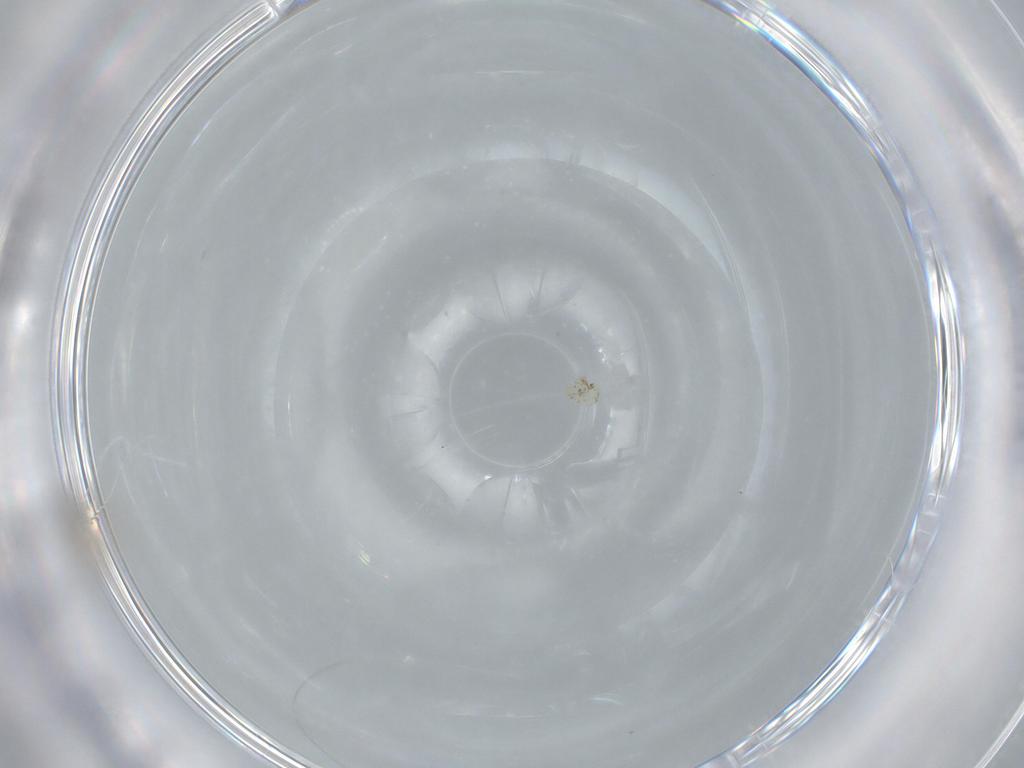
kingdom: Animalia
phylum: Arthropoda
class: Insecta
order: Diptera
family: Cecidomyiidae
